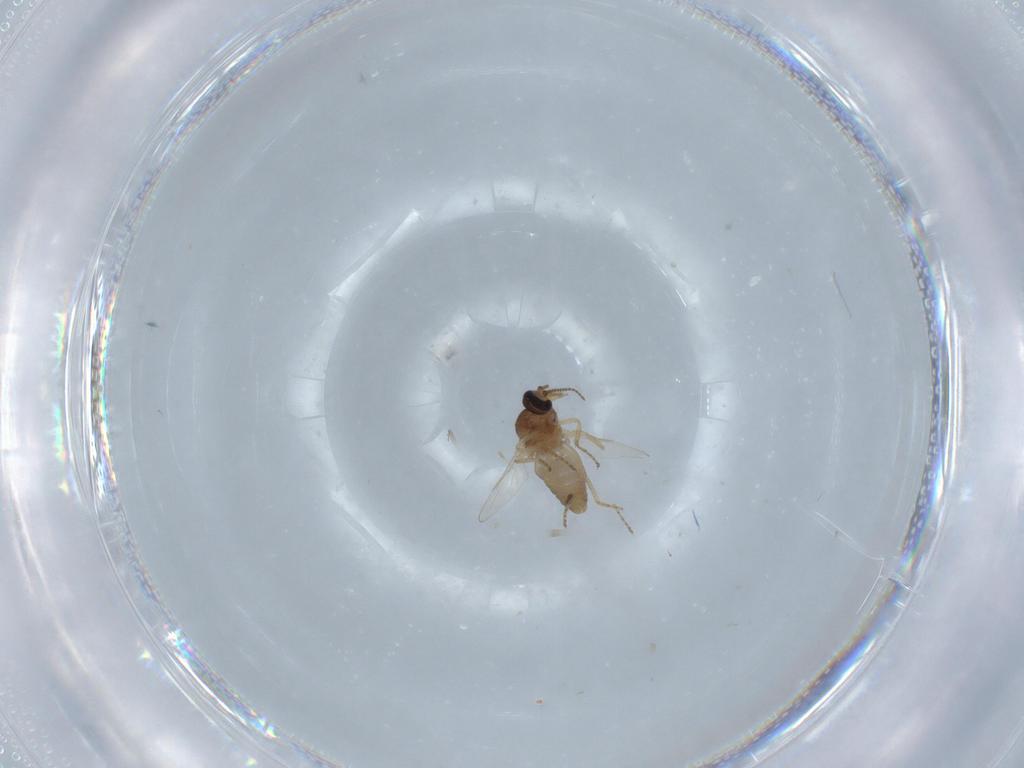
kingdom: Animalia
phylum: Arthropoda
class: Insecta
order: Diptera
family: Ceratopogonidae
